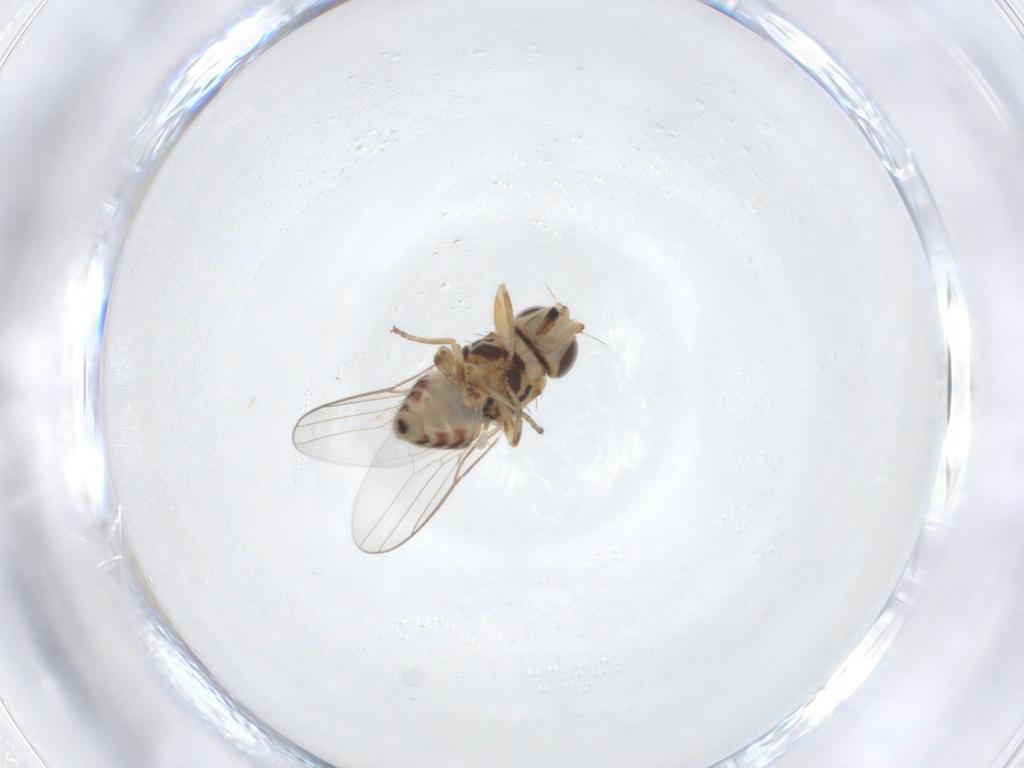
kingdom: Animalia
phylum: Arthropoda
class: Insecta
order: Diptera
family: Chloropidae
